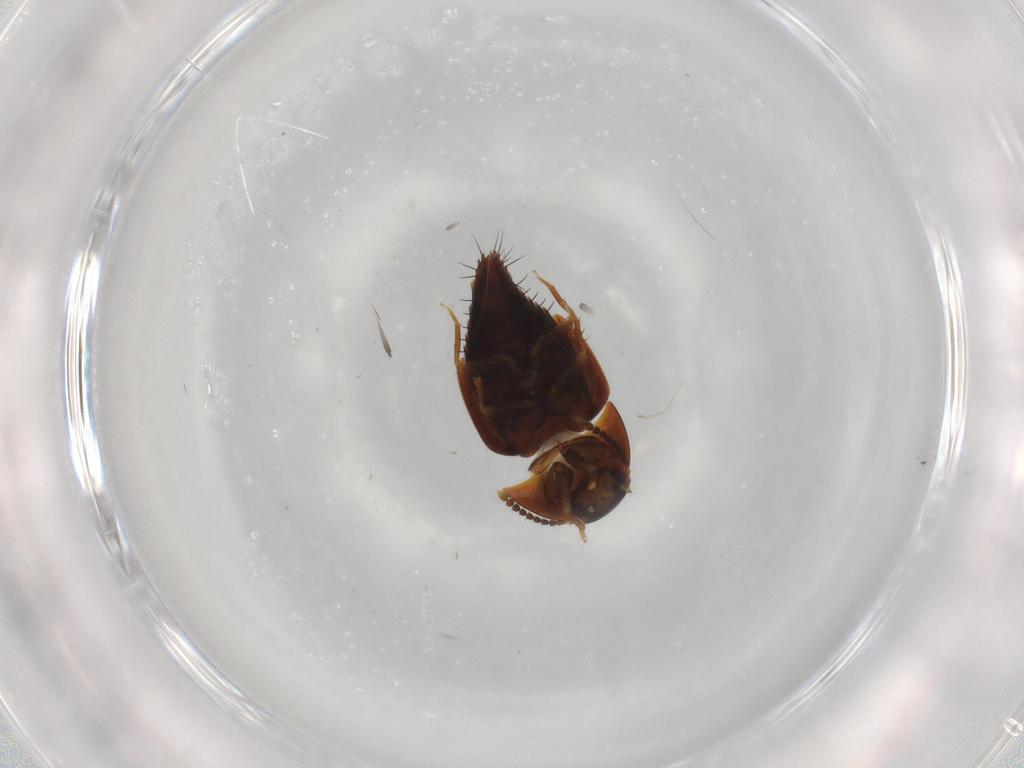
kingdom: Animalia
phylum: Arthropoda
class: Insecta
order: Coleoptera
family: Staphylinidae
